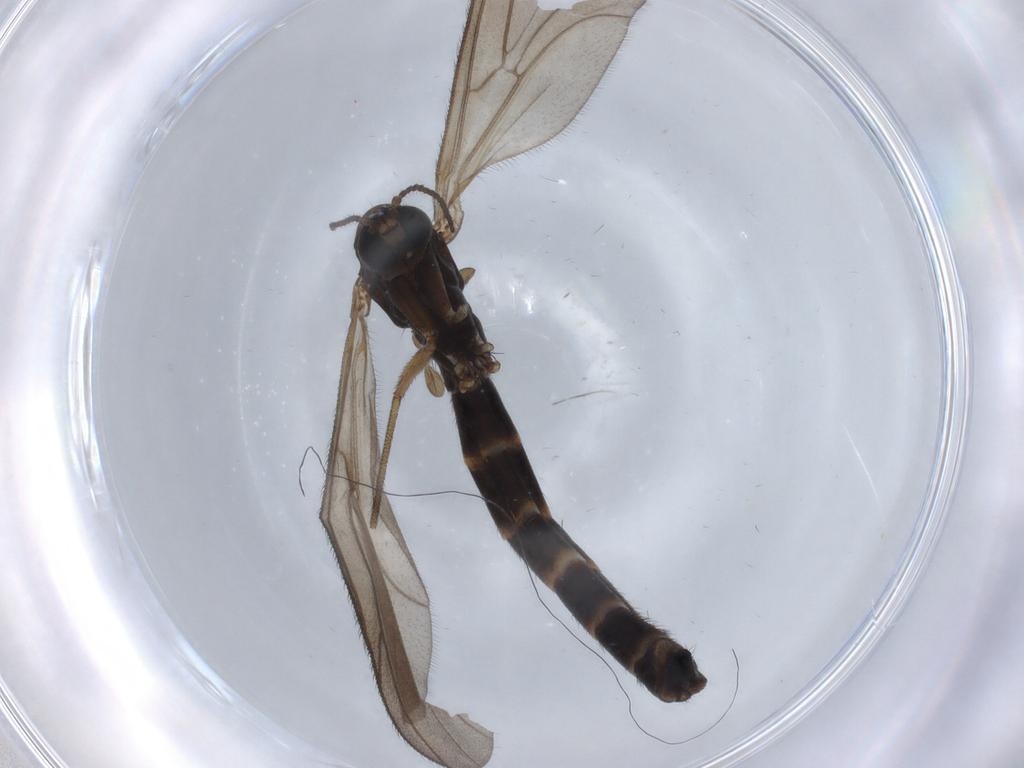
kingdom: Animalia
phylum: Arthropoda
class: Insecta
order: Diptera
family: Ditomyiidae
